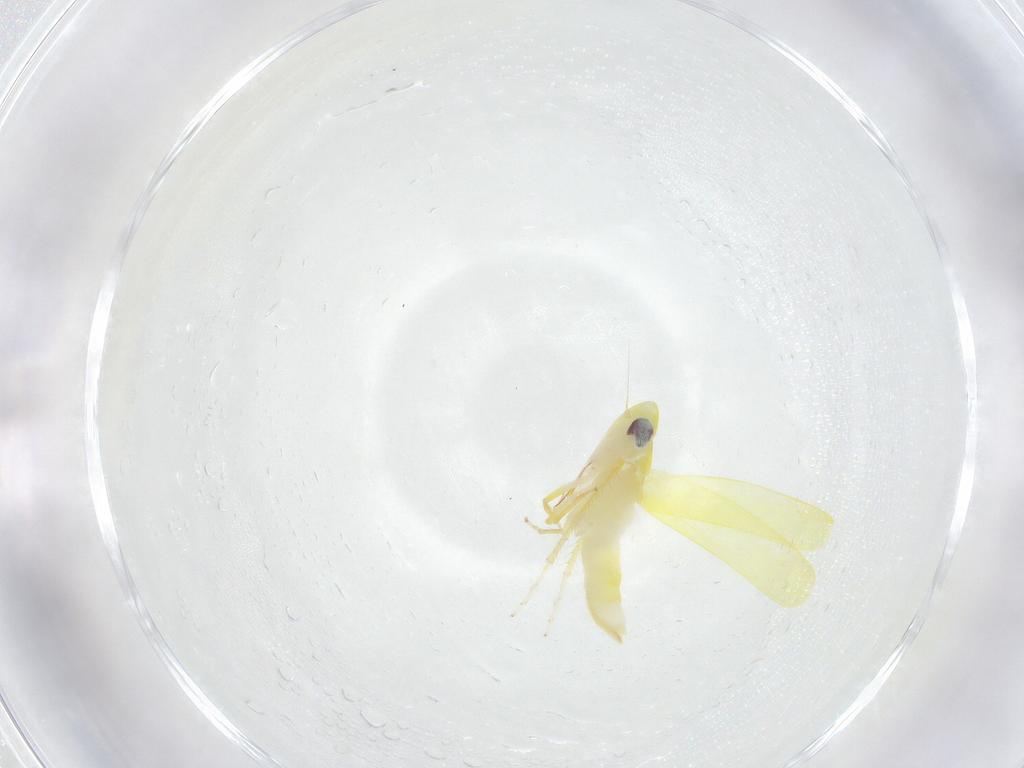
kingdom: Animalia
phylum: Arthropoda
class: Insecta
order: Hemiptera
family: Cicadellidae
